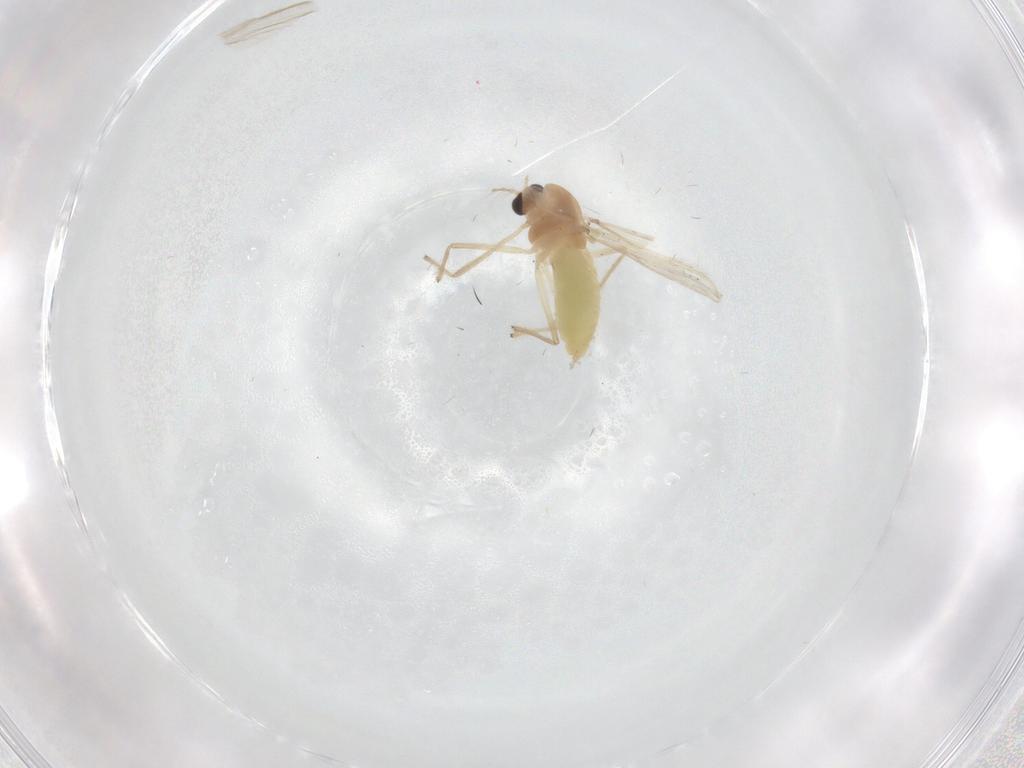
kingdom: Animalia
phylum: Arthropoda
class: Insecta
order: Diptera
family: Chironomidae
